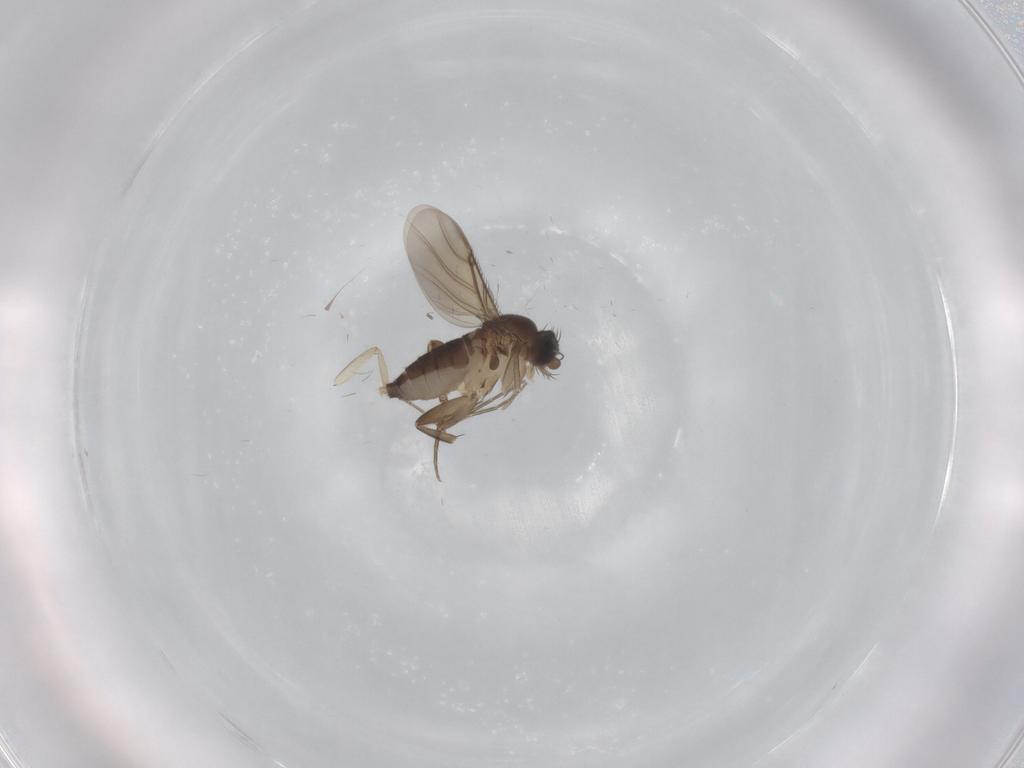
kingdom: Animalia
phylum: Arthropoda
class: Insecta
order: Diptera
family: Phoridae
